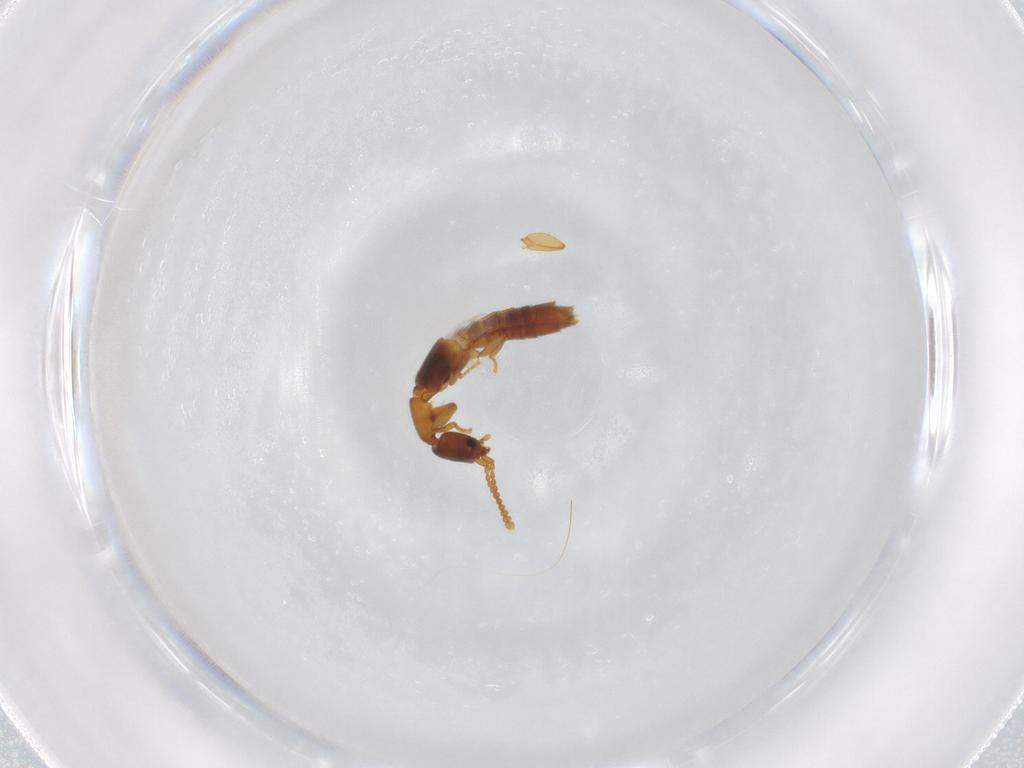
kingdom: Animalia
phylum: Arthropoda
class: Insecta
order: Coleoptera
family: Staphylinidae
